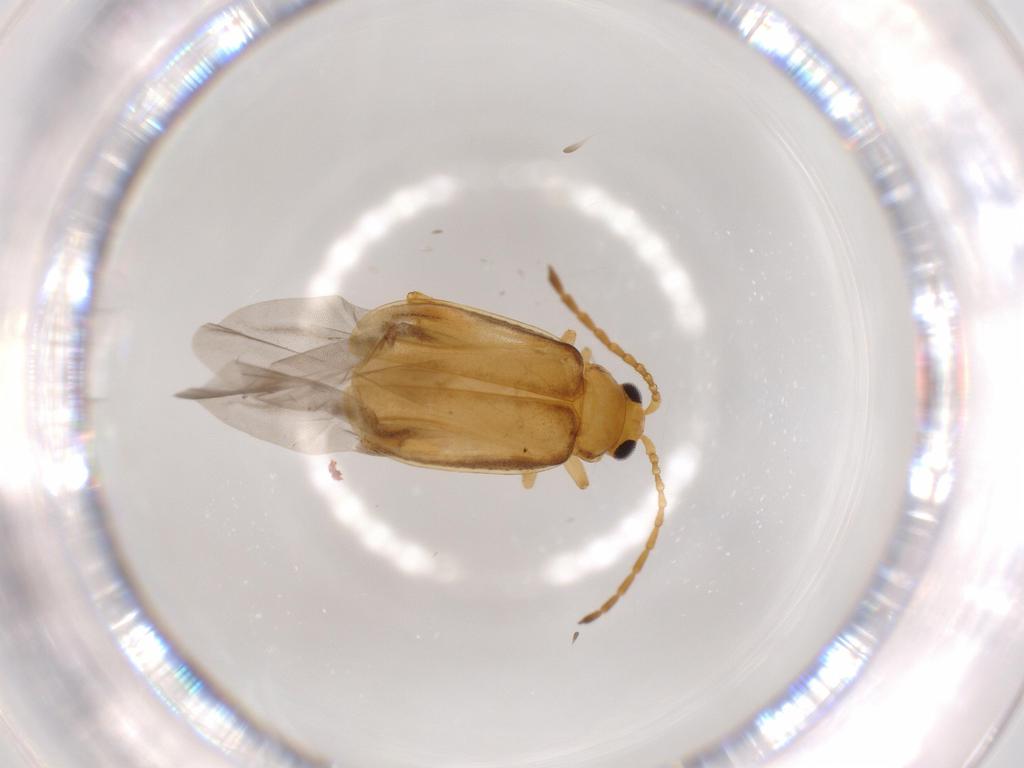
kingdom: Animalia
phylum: Arthropoda
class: Insecta
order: Coleoptera
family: Chrysomelidae
